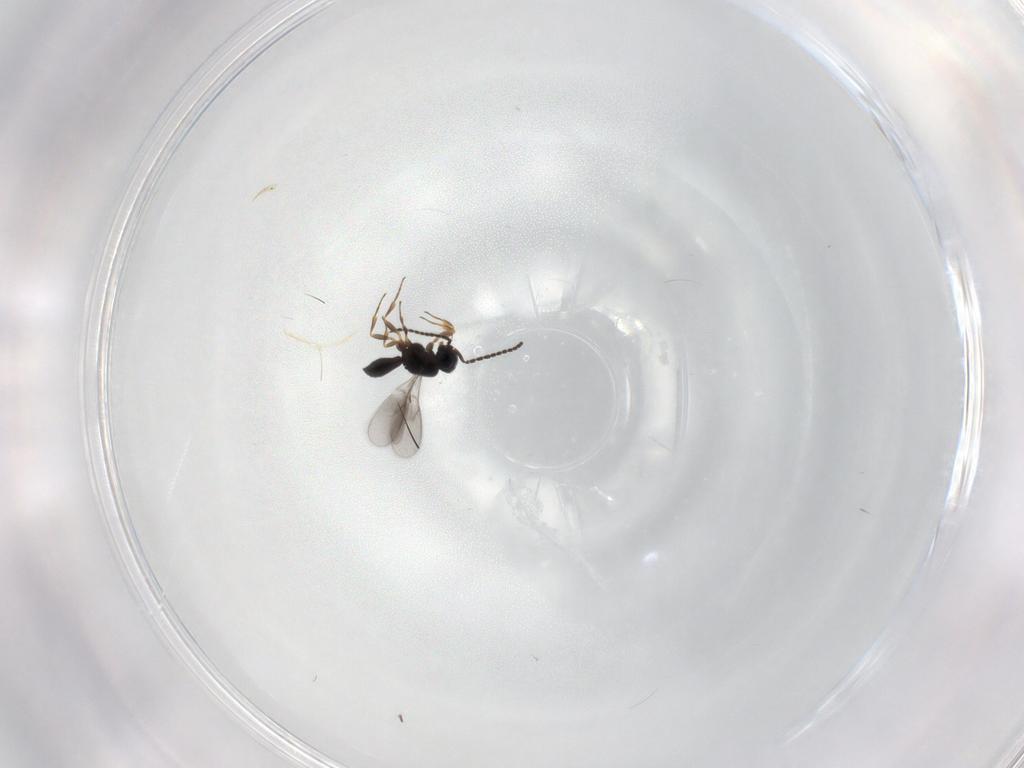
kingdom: Animalia
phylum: Arthropoda
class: Insecta
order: Hymenoptera
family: Scelionidae
